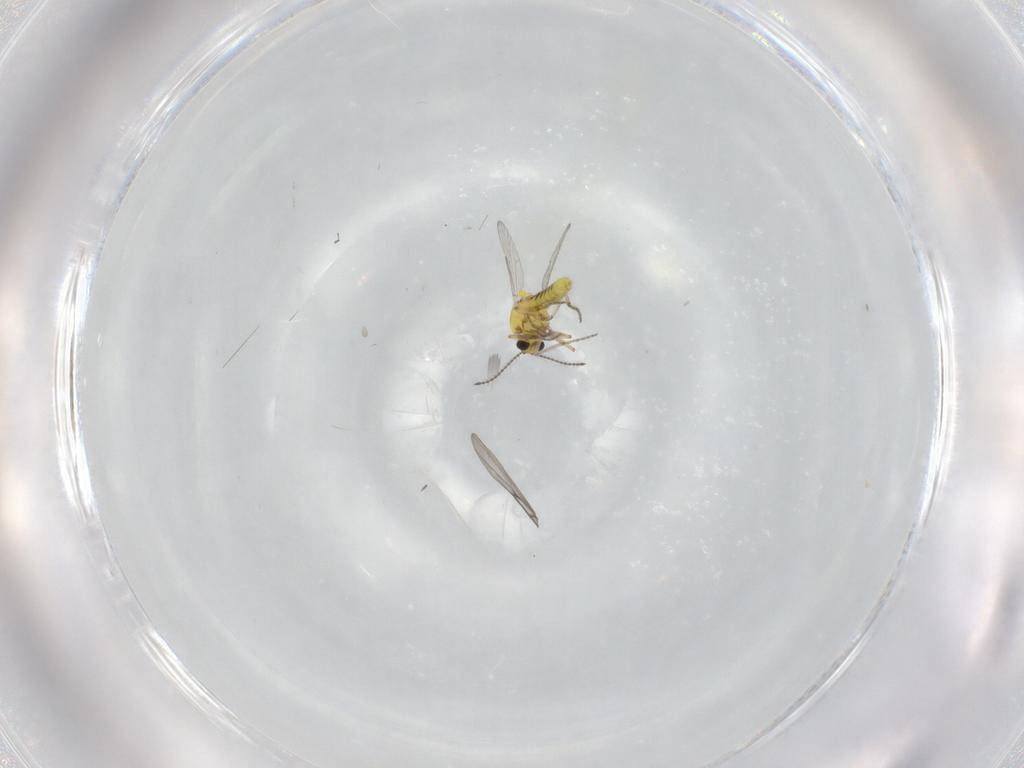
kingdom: Animalia
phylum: Arthropoda
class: Insecta
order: Diptera
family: Ceratopogonidae
